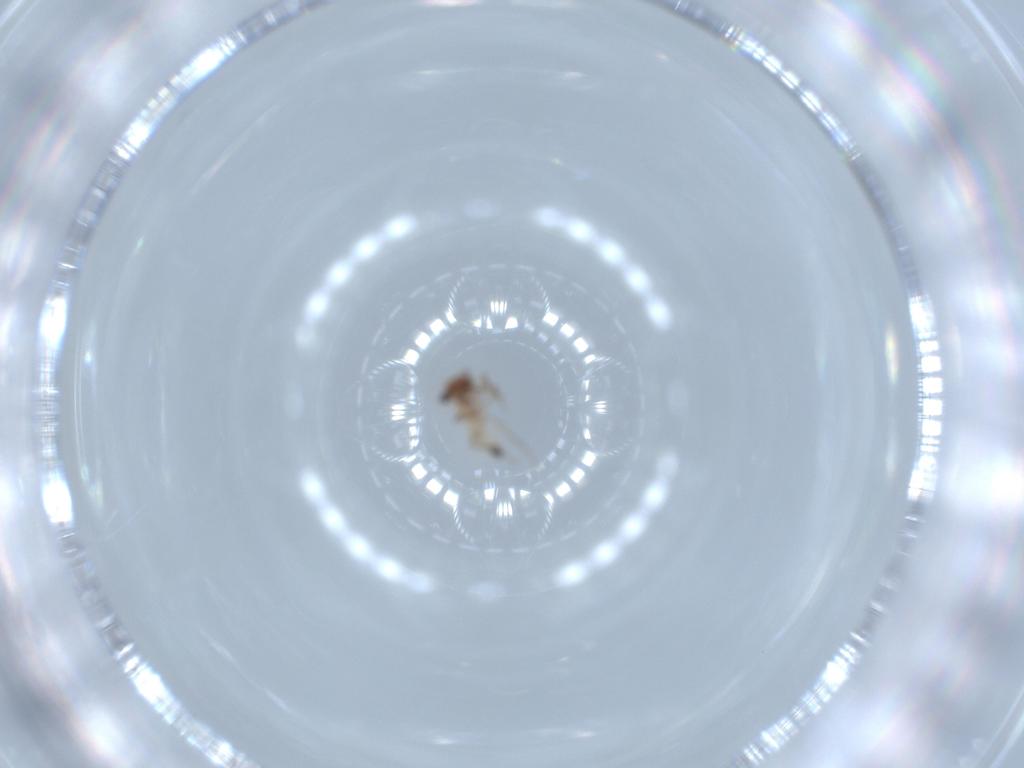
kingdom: Animalia
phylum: Arthropoda
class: Insecta
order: Psocodea
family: Lepidopsocidae
